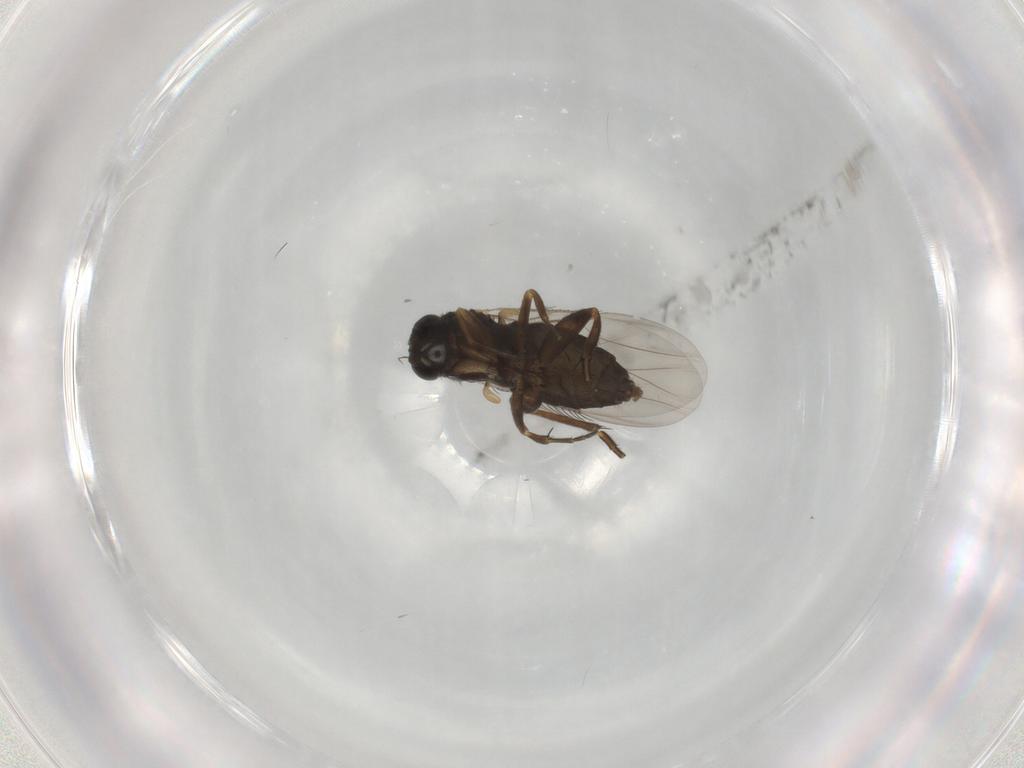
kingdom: Animalia
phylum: Arthropoda
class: Insecta
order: Diptera
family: Phoridae
